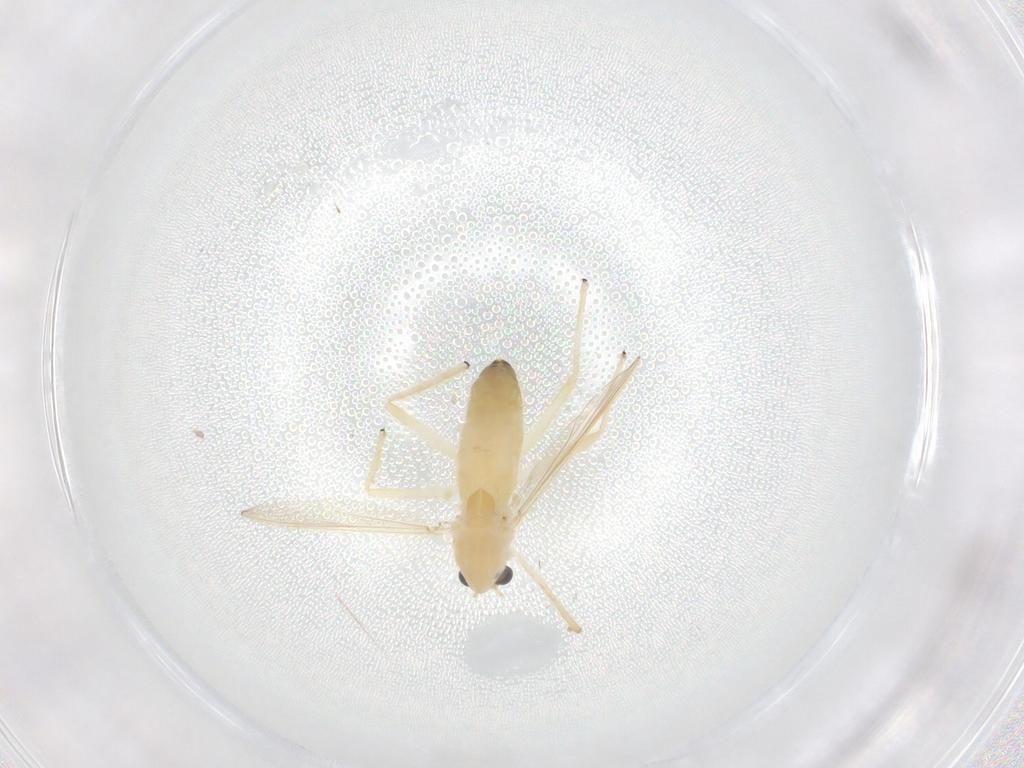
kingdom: Animalia
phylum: Arthropoda
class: Insecta
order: Diptera
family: Chironomidae
